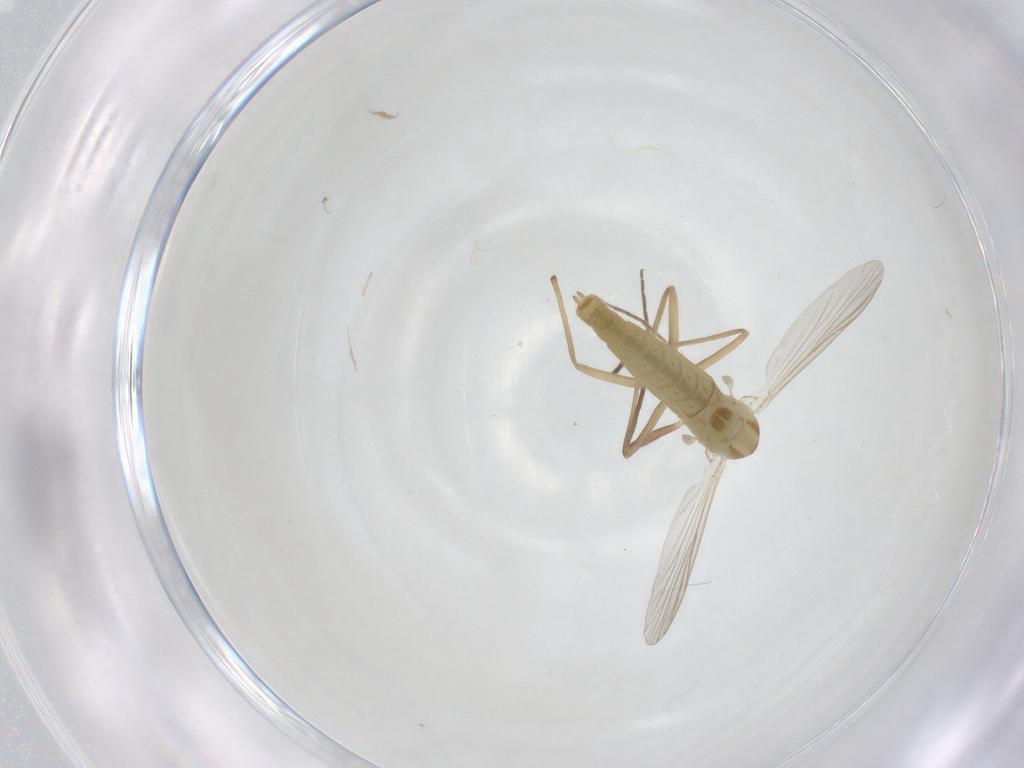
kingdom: Animalia
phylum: Arthropoda
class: Insecta
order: Diptera
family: Chironomidae
